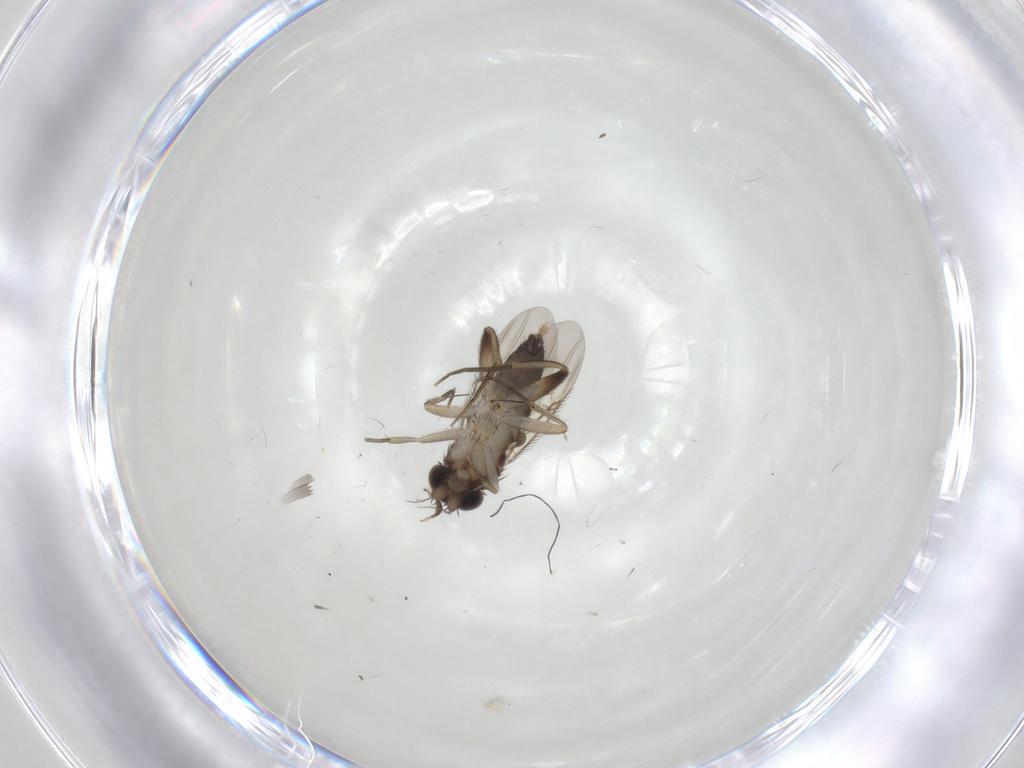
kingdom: Animalia
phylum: Arthropoda
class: Insecta
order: Diptera
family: Phoridae
